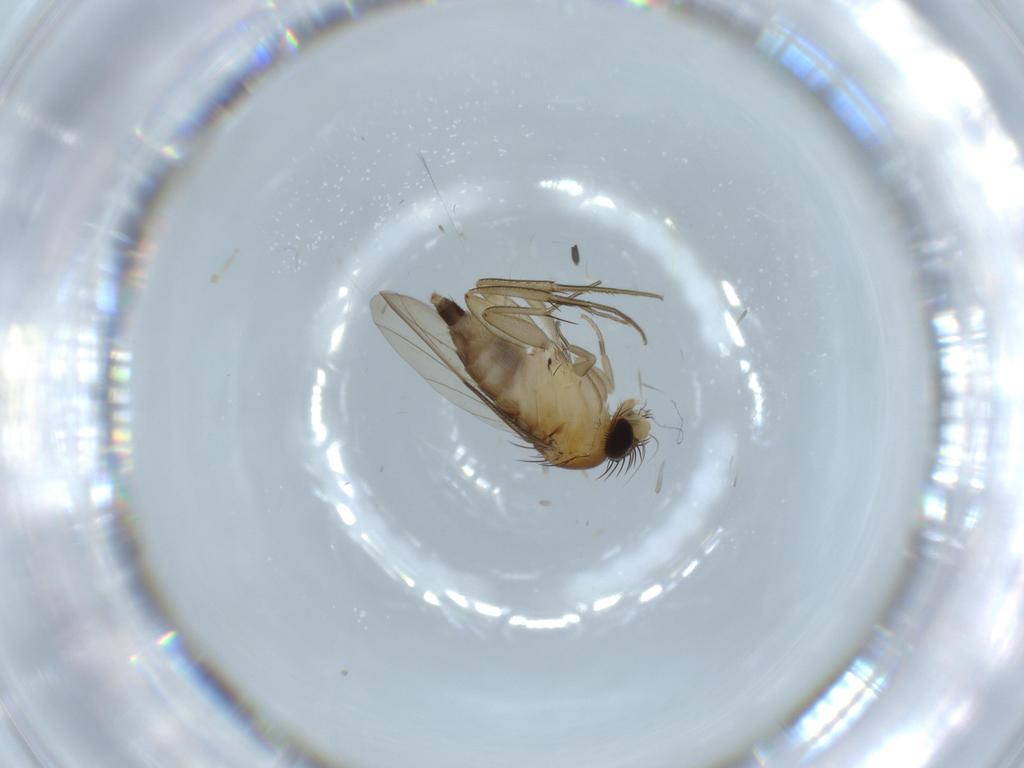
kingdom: Animalia
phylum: Arthropoda
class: Insecta
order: Diptera
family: Phoridae
